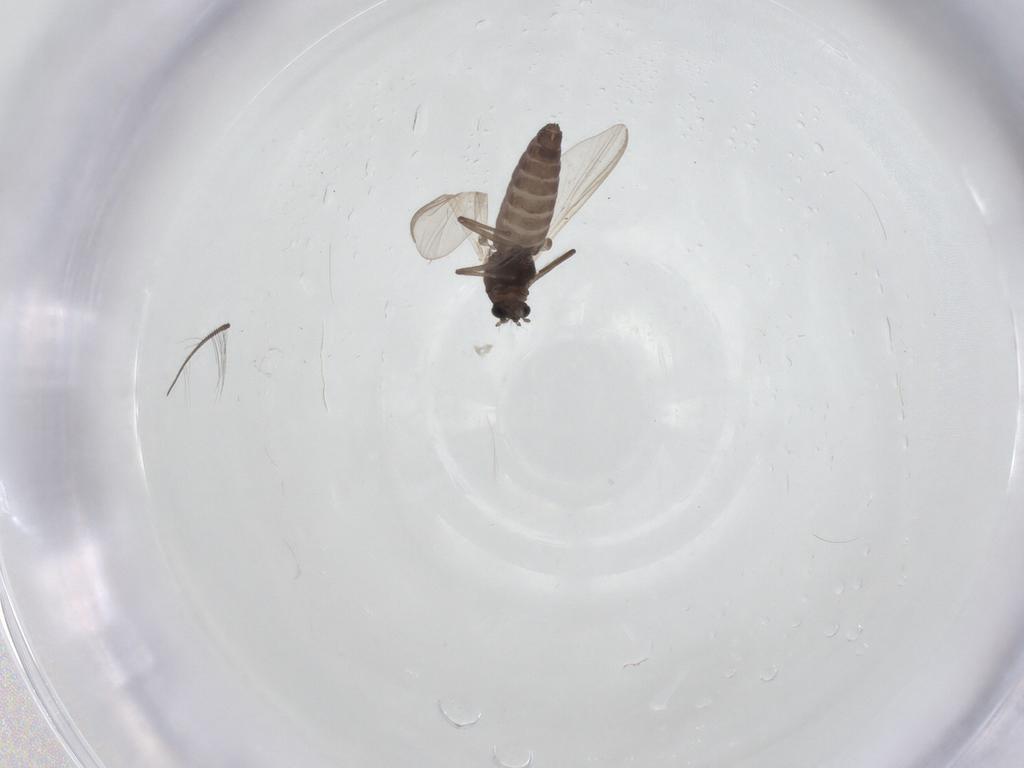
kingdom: Animalia
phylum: Arthropoda
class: Insecta
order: Diptera
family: Chironomidae
